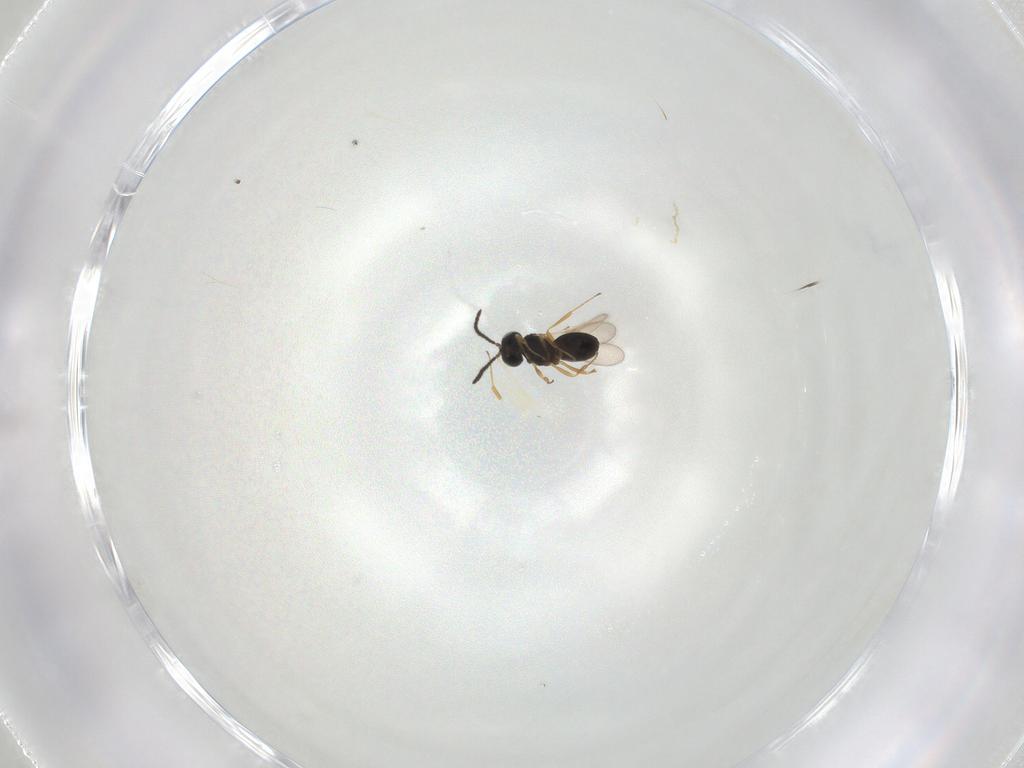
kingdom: Animalia
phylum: Arthropoda
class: Insecta
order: Hymenoptera
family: Scelionidae
